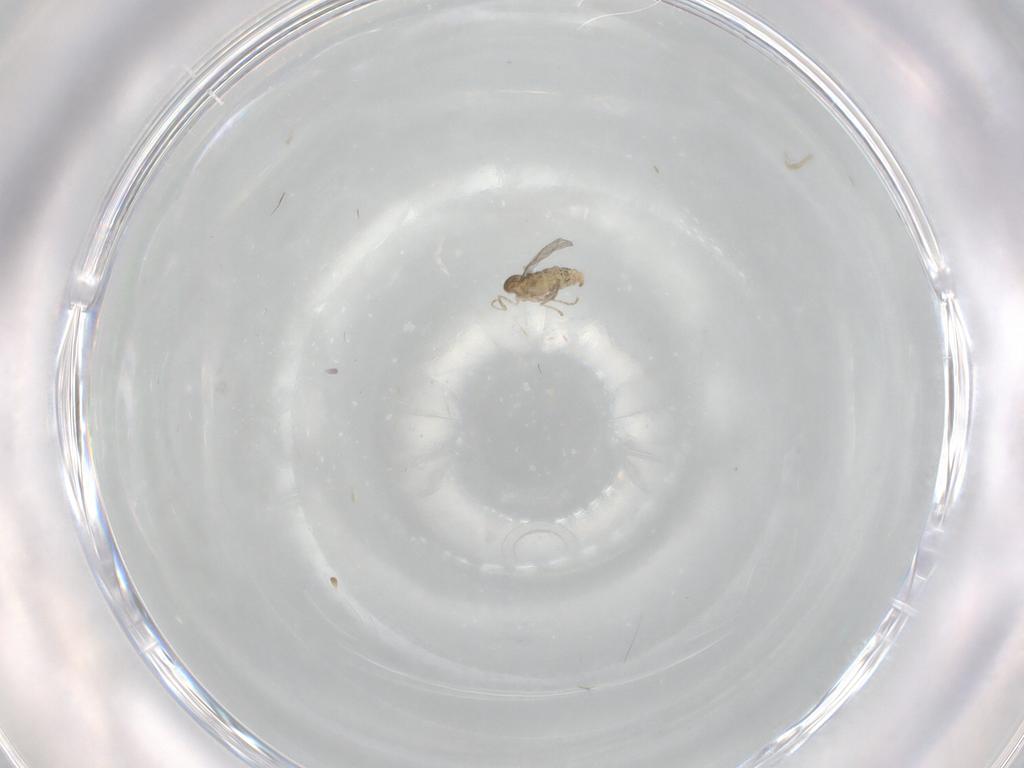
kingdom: Animalia
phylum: Arthropoda
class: Insecta
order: Diptera
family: Cecidomyiidae
